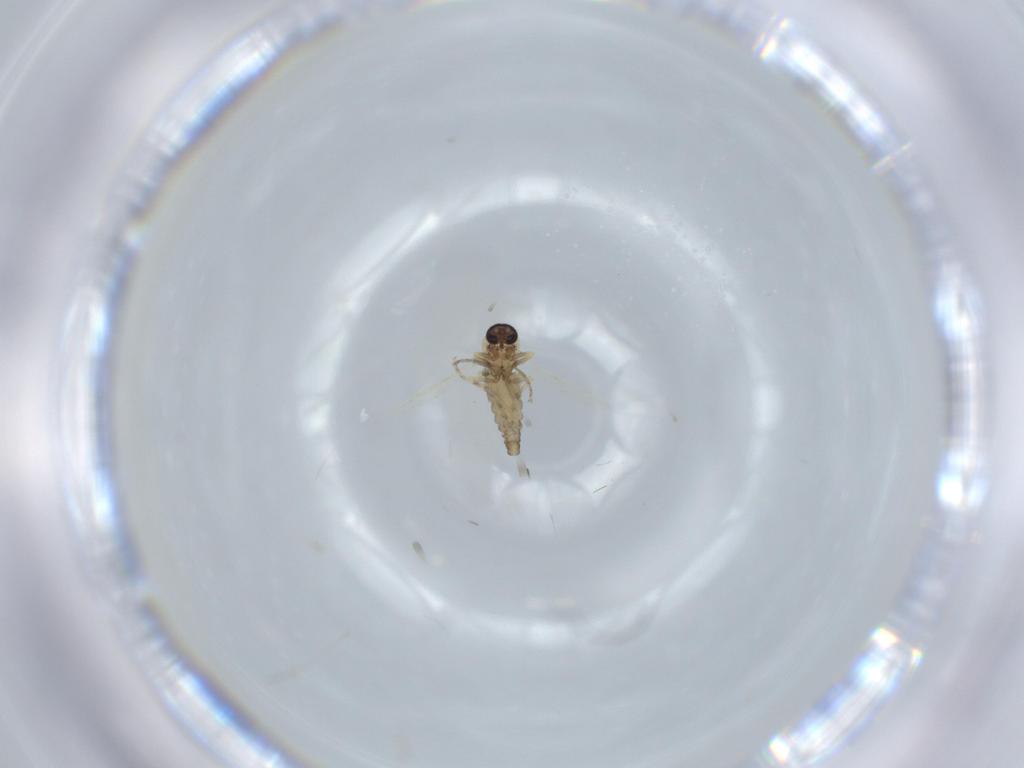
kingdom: Animalia
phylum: Arthropoda
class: Insecta
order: Diptera
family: Ceratopogonidae
